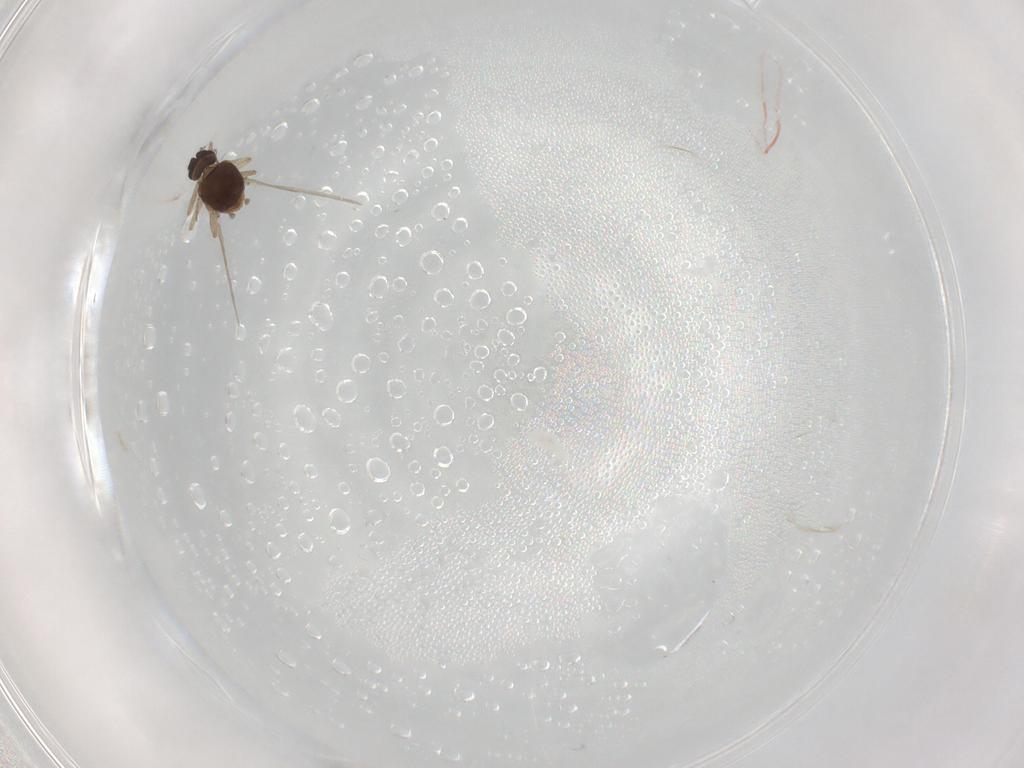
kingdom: Animalia
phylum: Arthropoda
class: Insecta
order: Diptera
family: Ceratopogonidae
